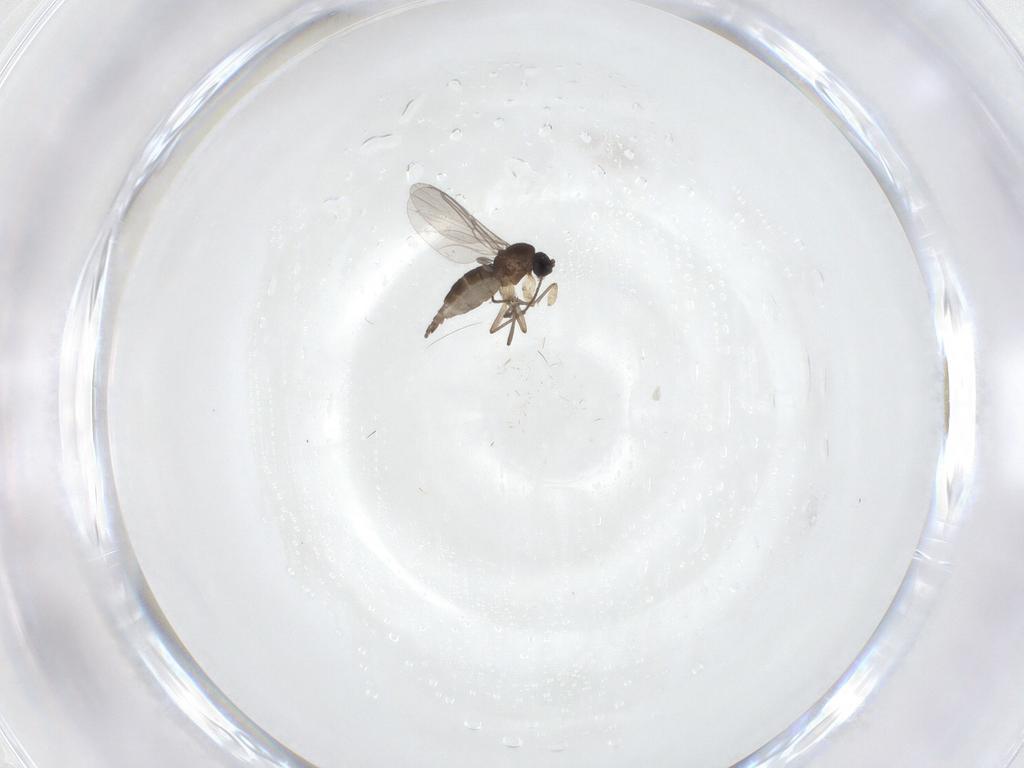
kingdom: Animalia
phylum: Arthropoda
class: Insecta
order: Diptera
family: Sciaridae
